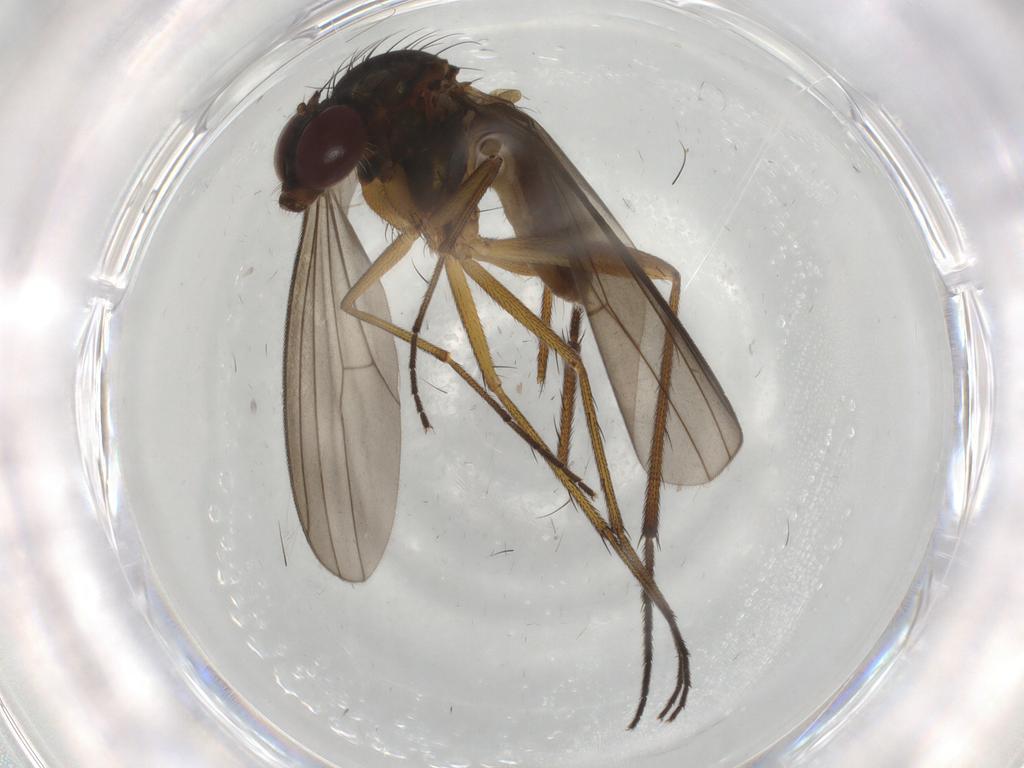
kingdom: Animalia
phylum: Arthropoda
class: Insecta
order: Diptera
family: Dolichopodidae
